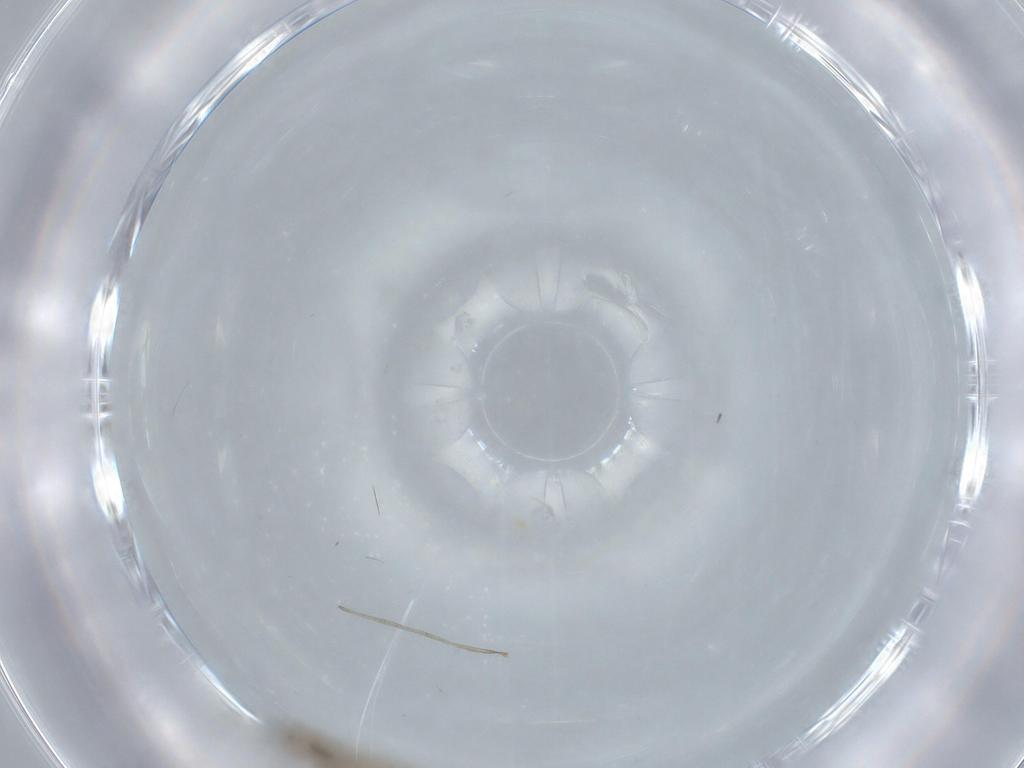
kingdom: Animalia
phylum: Arthropoda
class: Insecta
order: Diptera
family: Cecidomyiidae
